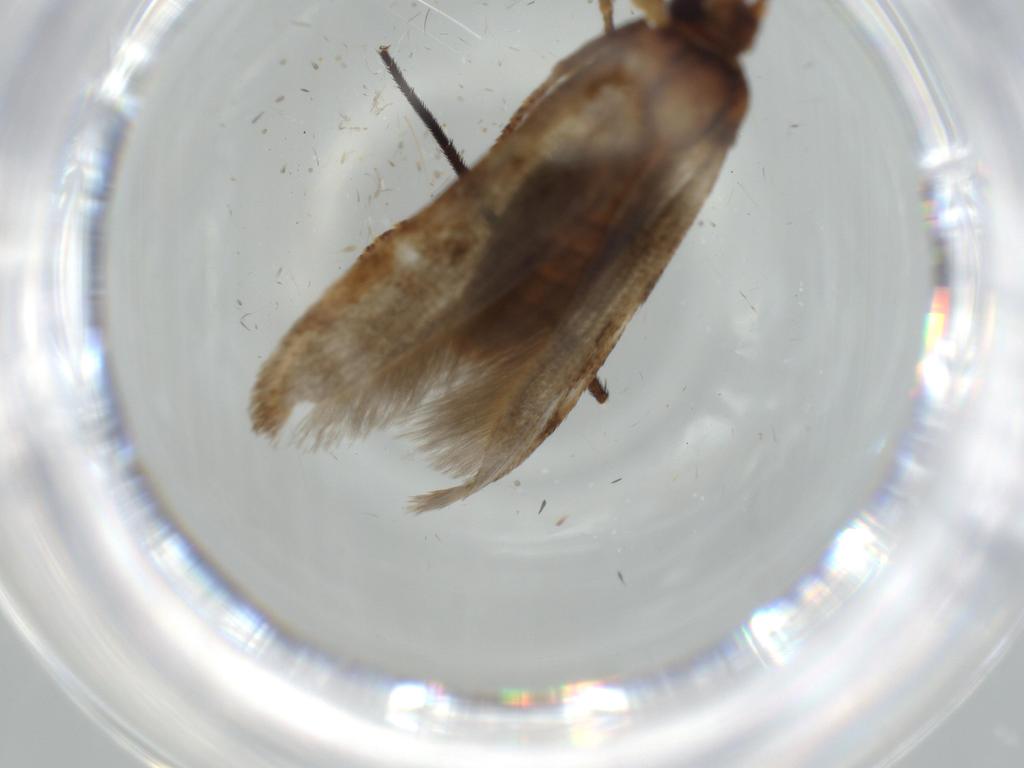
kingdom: Animalia
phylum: Arthropoda
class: Insecta
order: Lepidoptera
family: Coleophoridae
